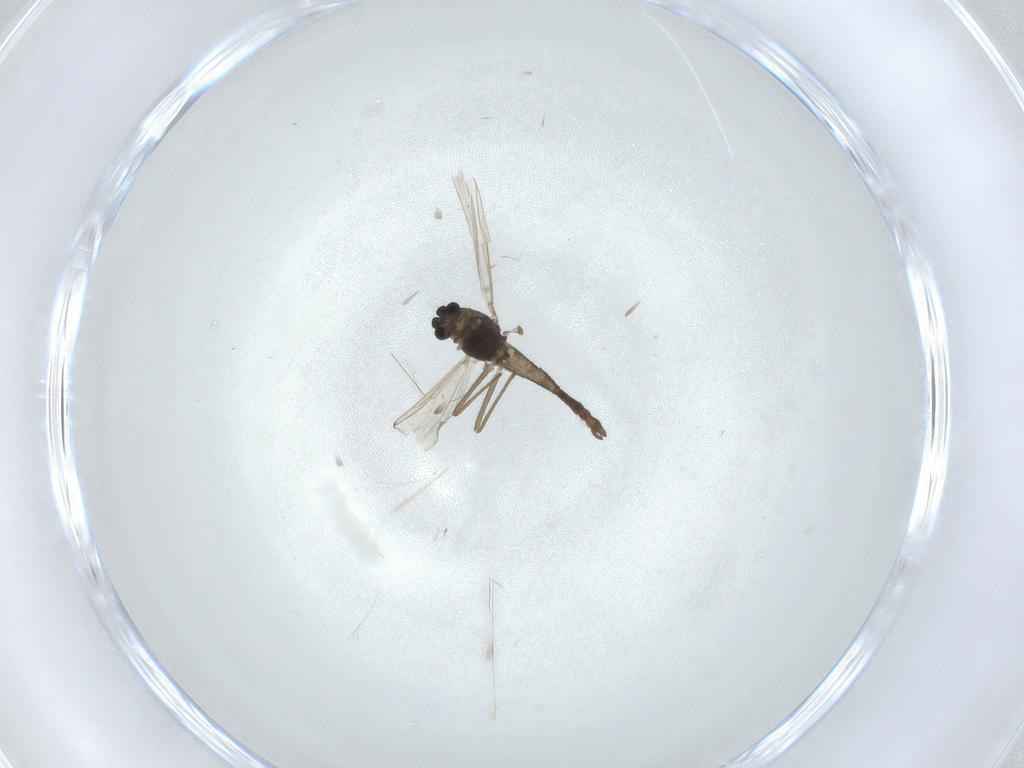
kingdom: Animalia
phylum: Arthropoda
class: Insecta
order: Diptera
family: Chironomidae
